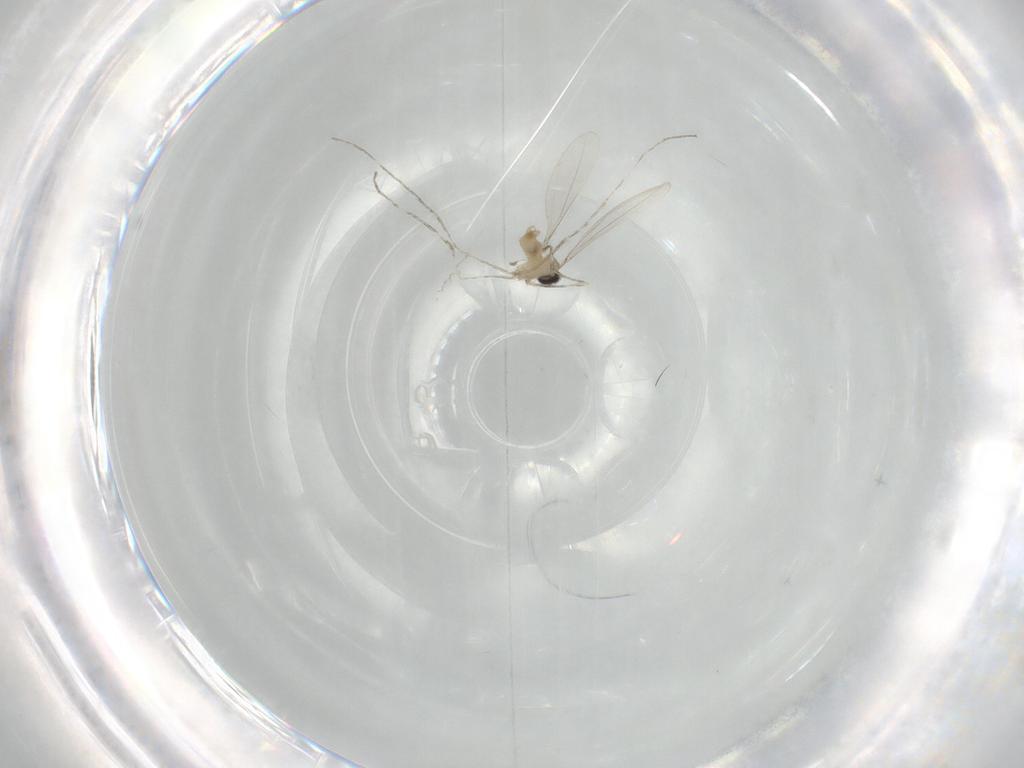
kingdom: Animalia
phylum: Arthropoda
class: Insecta
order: Diptera
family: Cecidomyiidae
